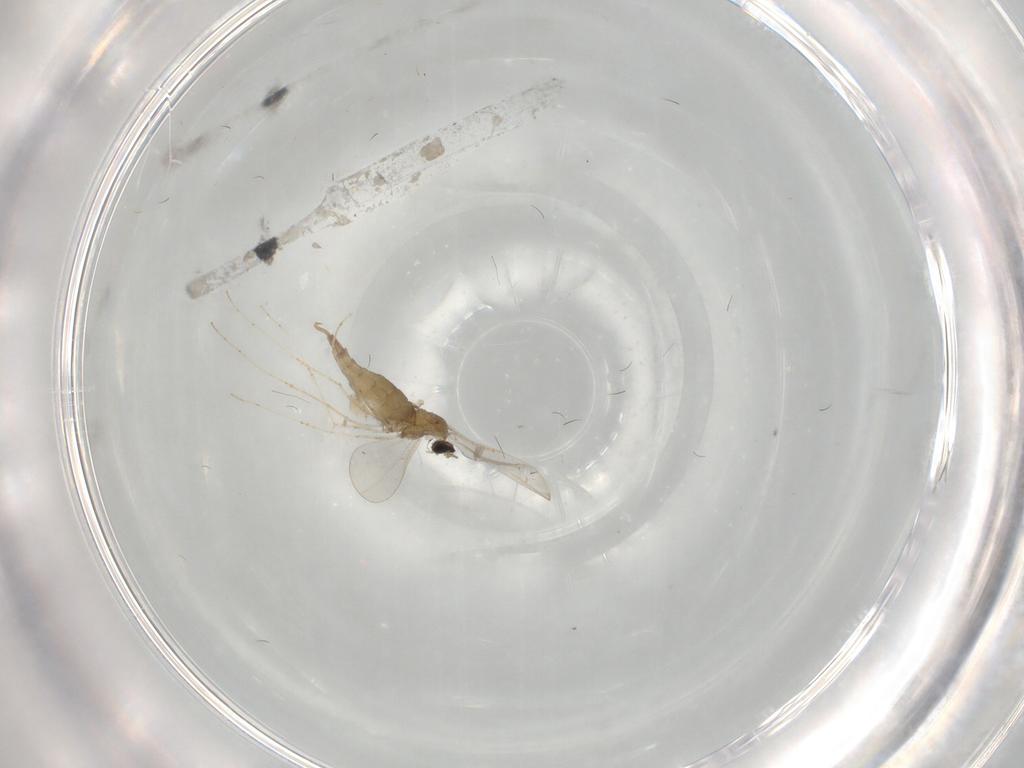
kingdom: Animalia
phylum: Arthropoda
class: Insecta
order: Diptera
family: Cecidomyiidae
